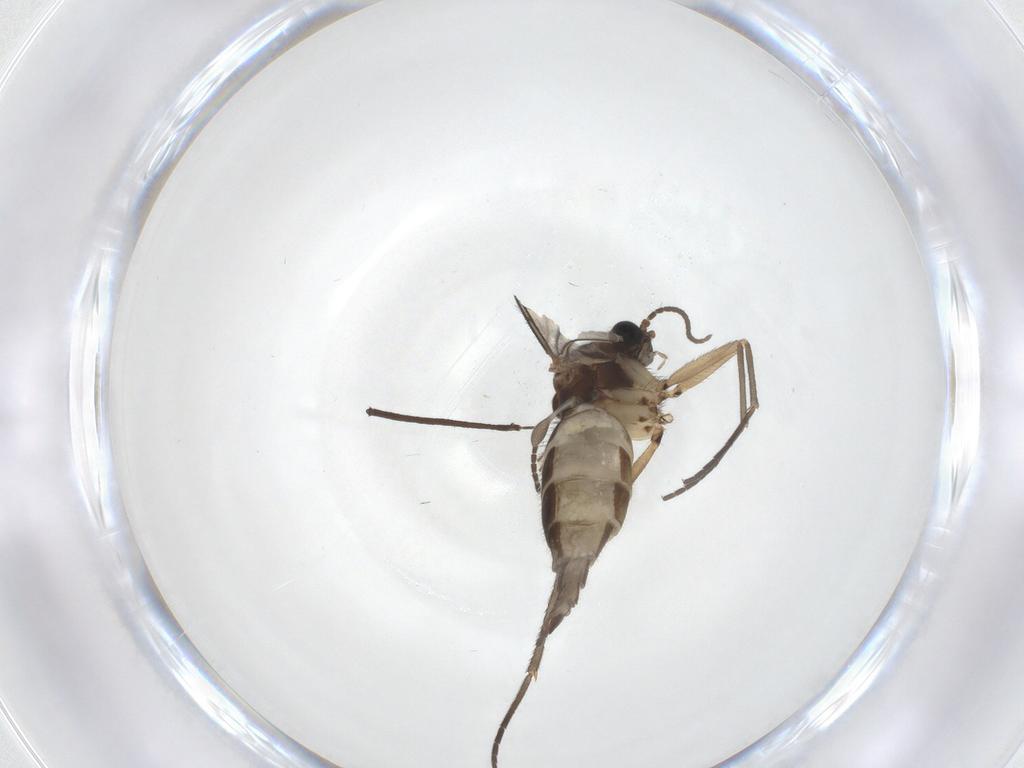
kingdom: Animalia
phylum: Arthropoda
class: Insecta
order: Diptera
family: Sciaridae
